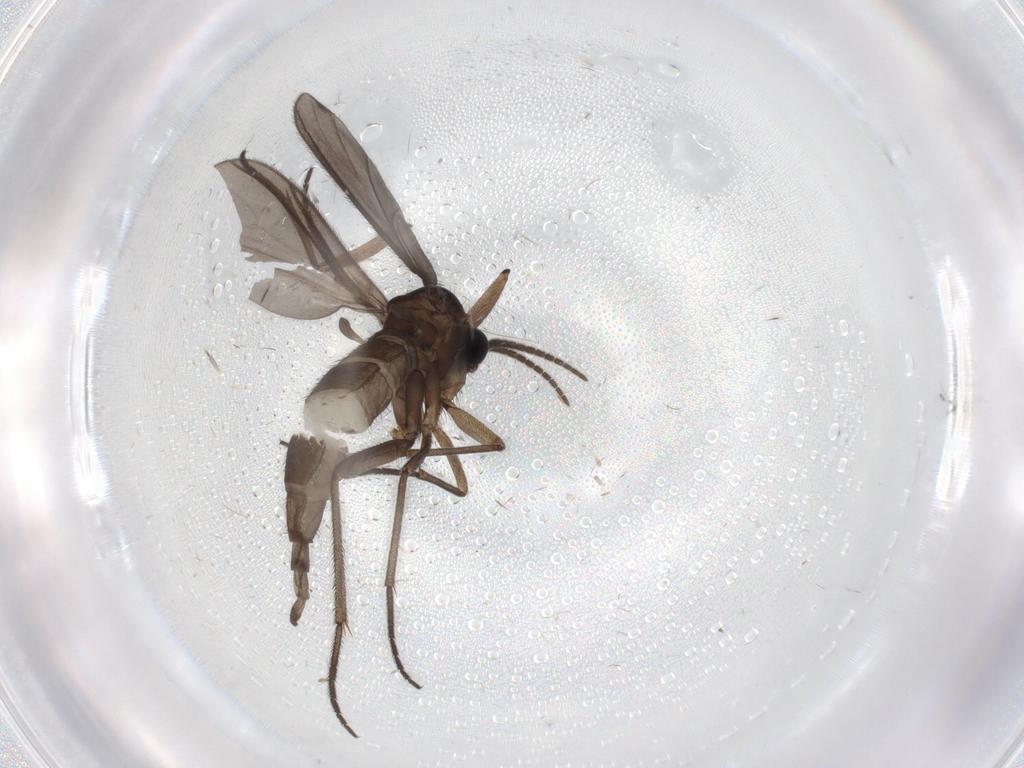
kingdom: Animalia
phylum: Arthropoda
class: Insecta
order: Diptera
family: Sciaridae
